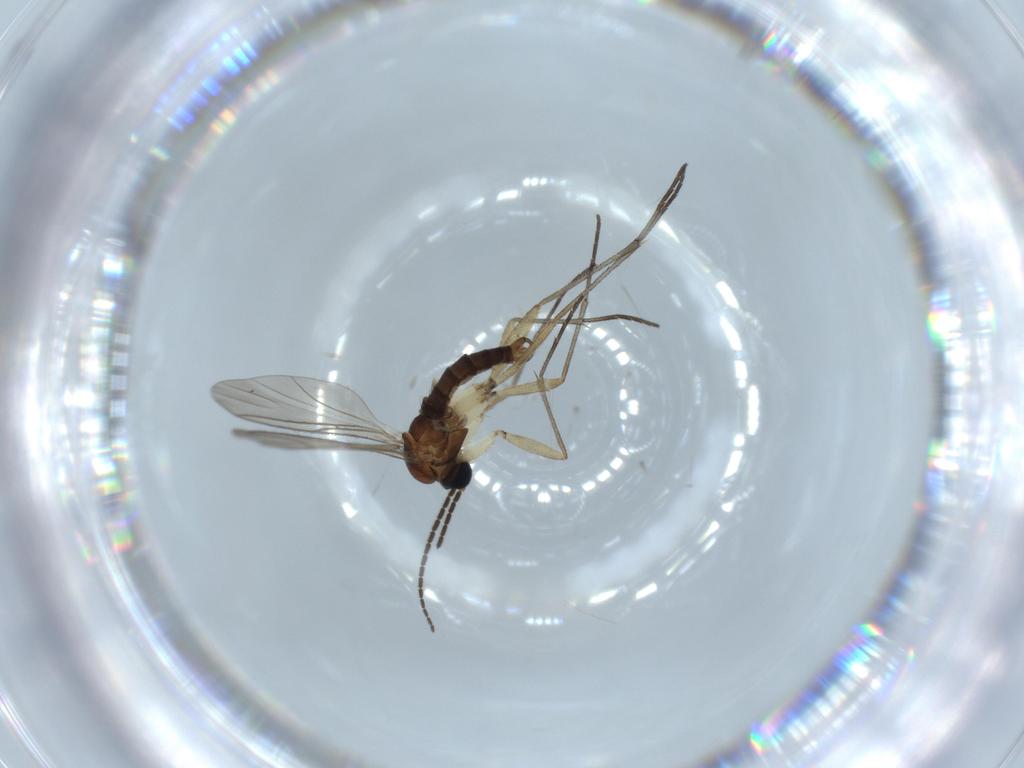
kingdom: Animalia
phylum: Arthropoda
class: Insecta
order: Diptera
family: Sciaridae
